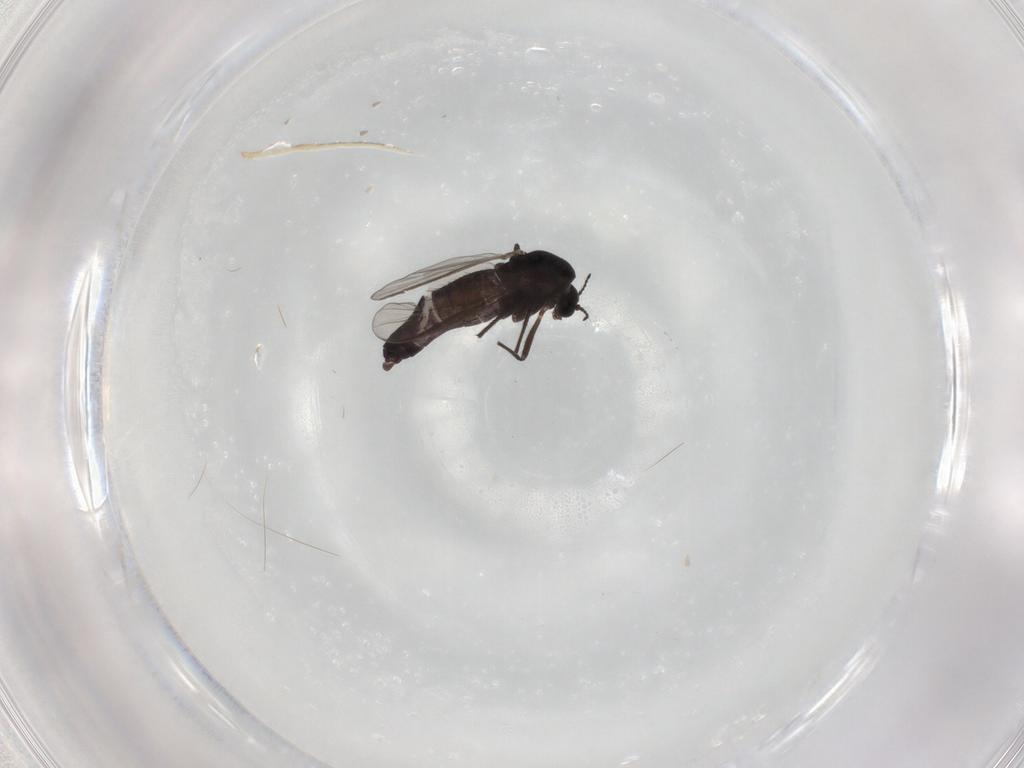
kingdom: Animalia
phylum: Arthropoda
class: Insecta
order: Diptera
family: Chironomidae
